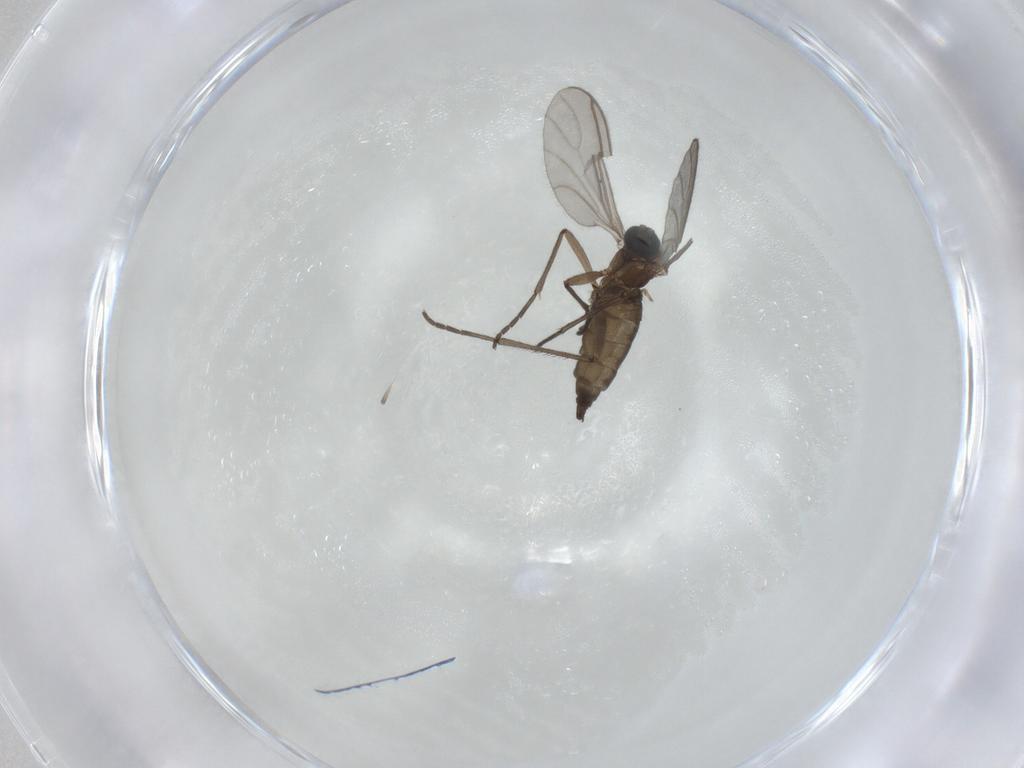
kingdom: Animalia
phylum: Arthropoda
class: Insecta
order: Diptera
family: Sciaridae
